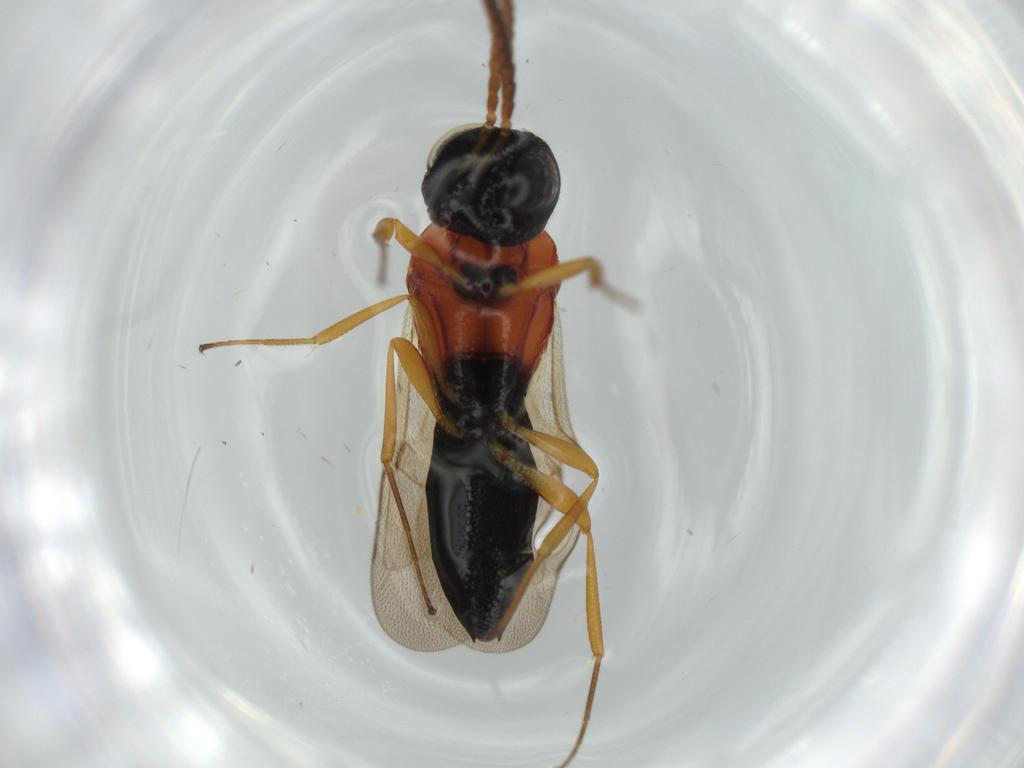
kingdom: Animalia
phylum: Arthropoda
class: Insecta
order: Hymenoptera
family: Scelionidae
